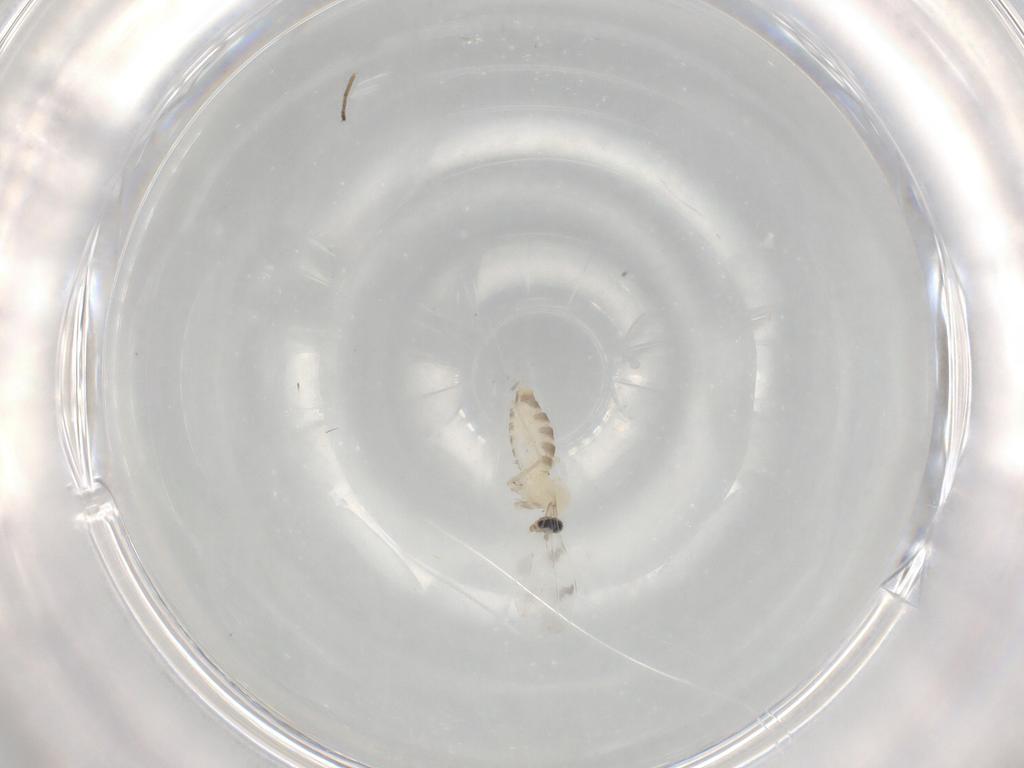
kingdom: Animalia
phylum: Arthropoda
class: Insecta
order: Diptera
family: Cecidomyiidae
